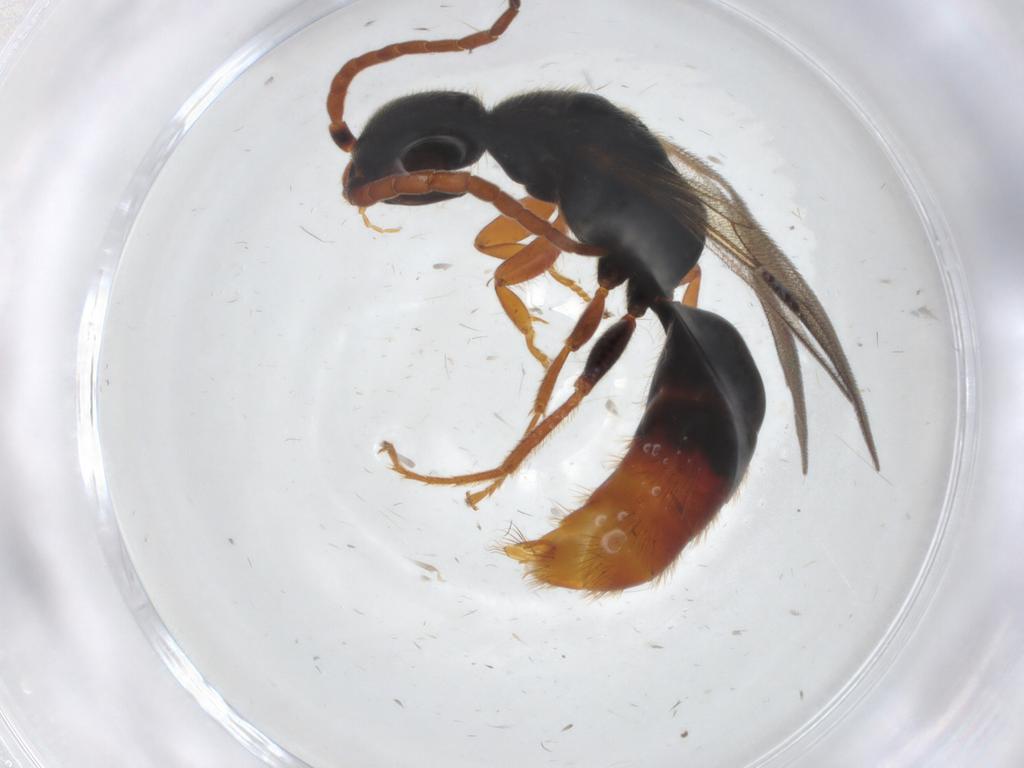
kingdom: Animalia
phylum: Arthropoda
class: Insecta
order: Hymenoptera
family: Bethylidae
